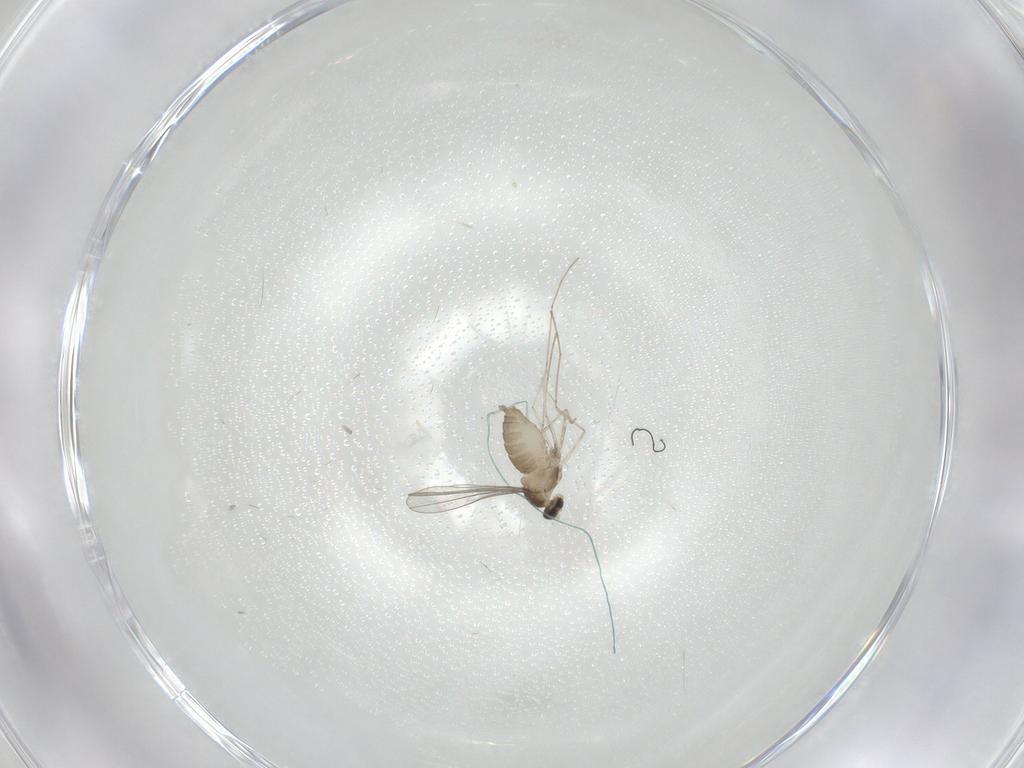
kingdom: Animalia
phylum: Arthropoda
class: Insecta
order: Diptera
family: Cecidomyiidae
